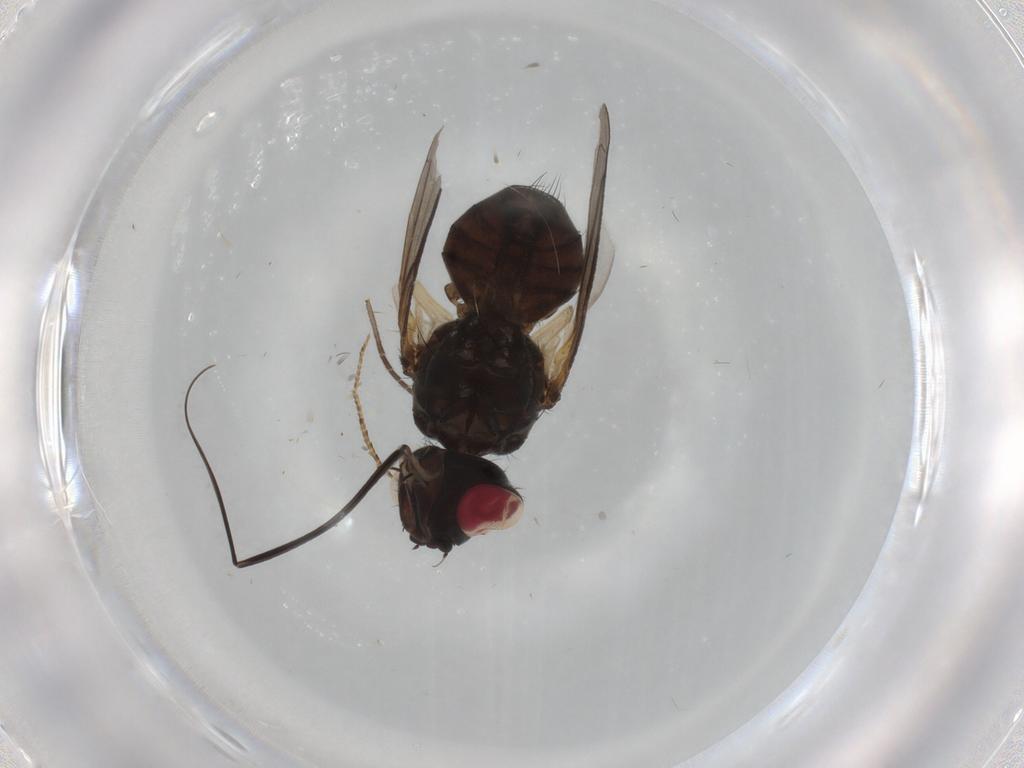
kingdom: Animalia
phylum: Arthropoda
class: Insecta
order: Diptera
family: Tachinidae
